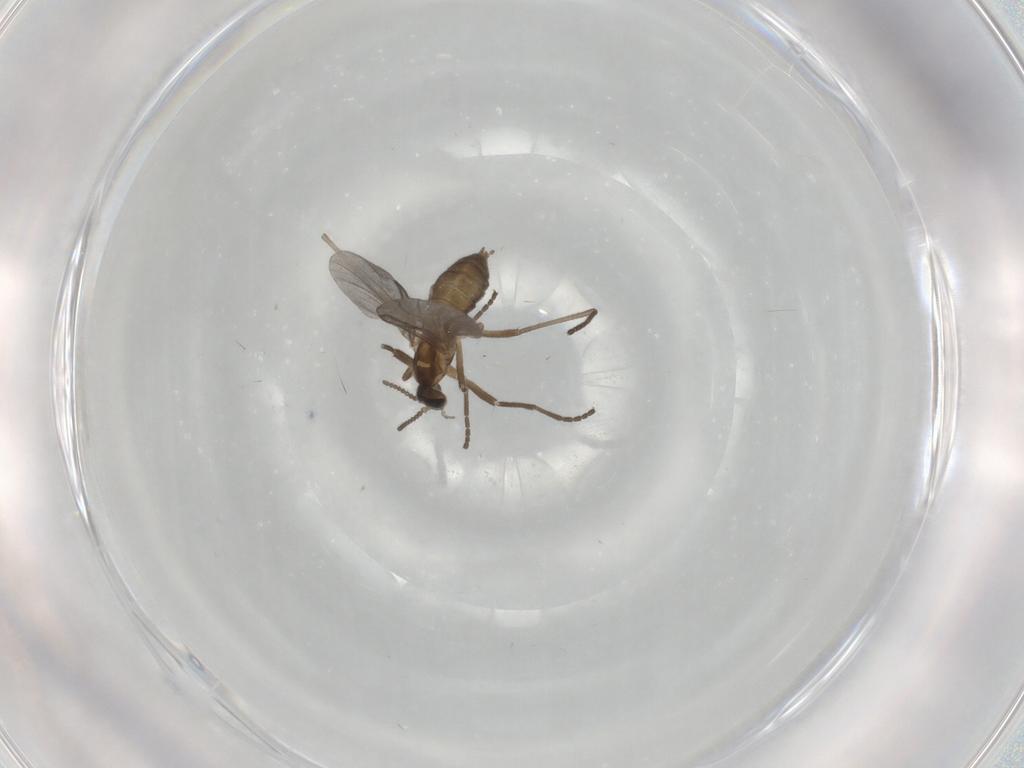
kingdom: Animalia
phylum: Arthropoda
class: Insecta
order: Diptera
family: Cecidomyiidae
